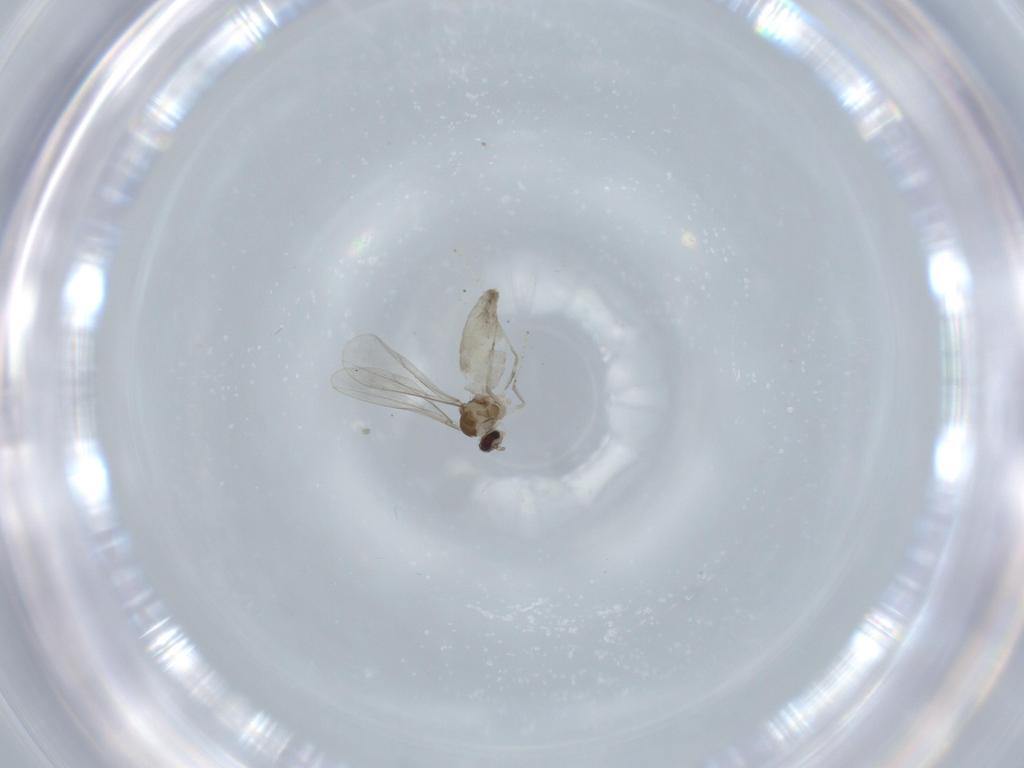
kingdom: Animalia
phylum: Arthropoda
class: Insecta
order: Diptera
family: Cecidomyiidae
